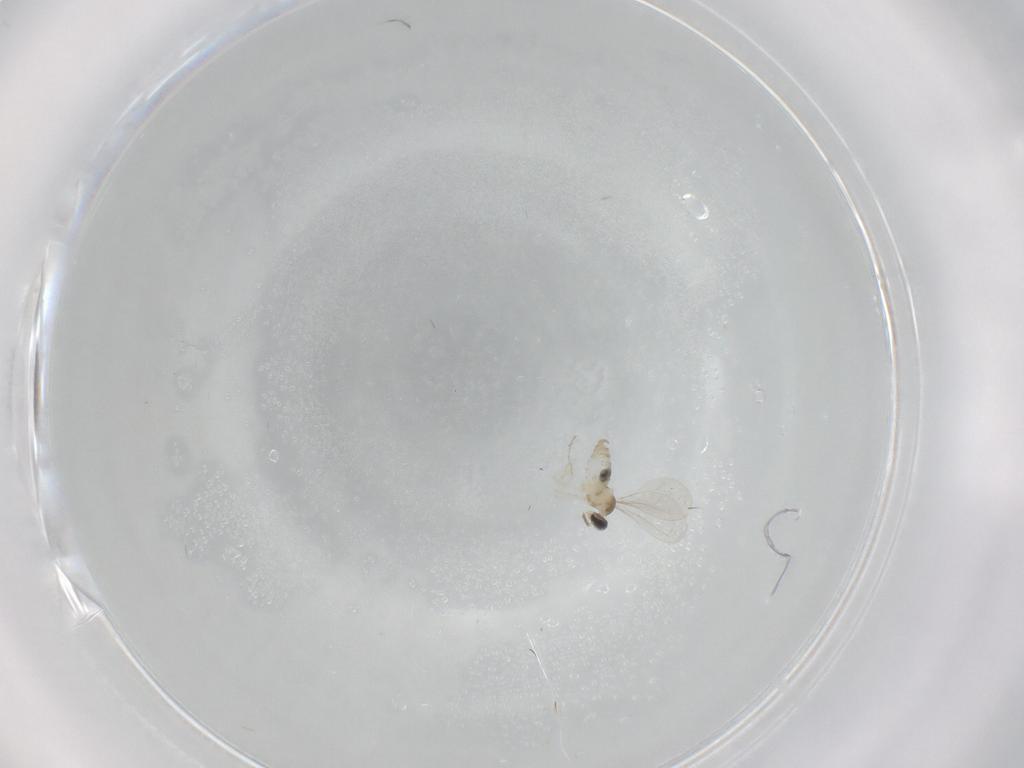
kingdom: Animalia
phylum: Arthropoda
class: Insecta
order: Diptera
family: Cecidomyiidae
